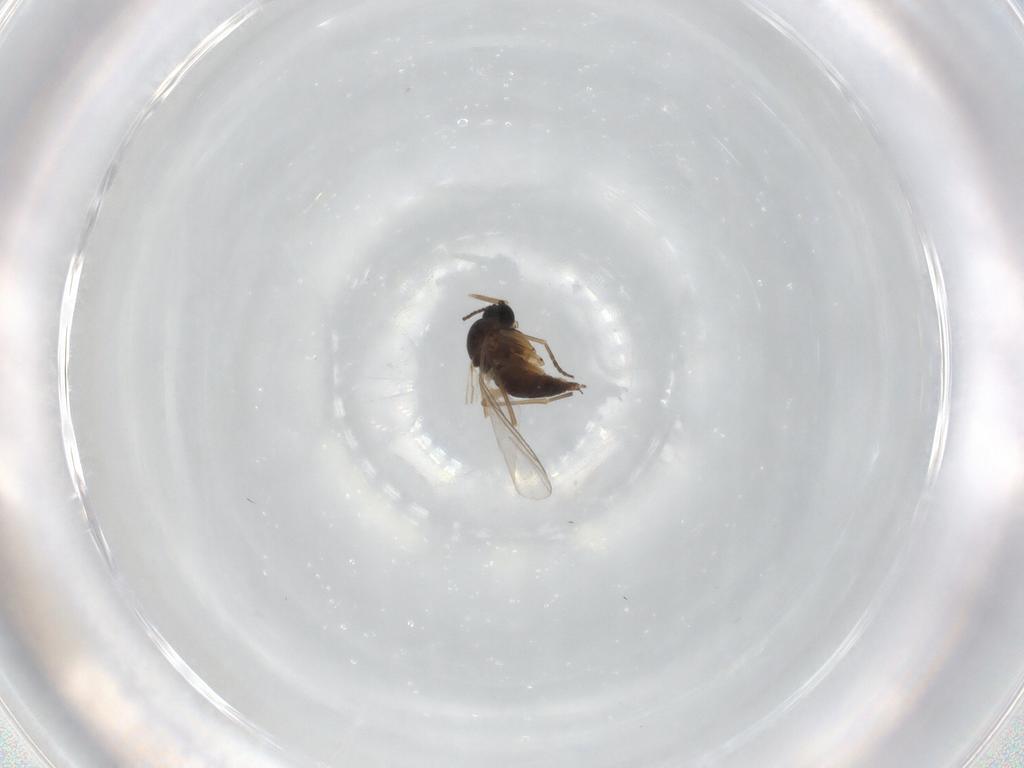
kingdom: Animalia
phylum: Arthropoda
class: Insecta
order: Diptera
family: Sciaridae
